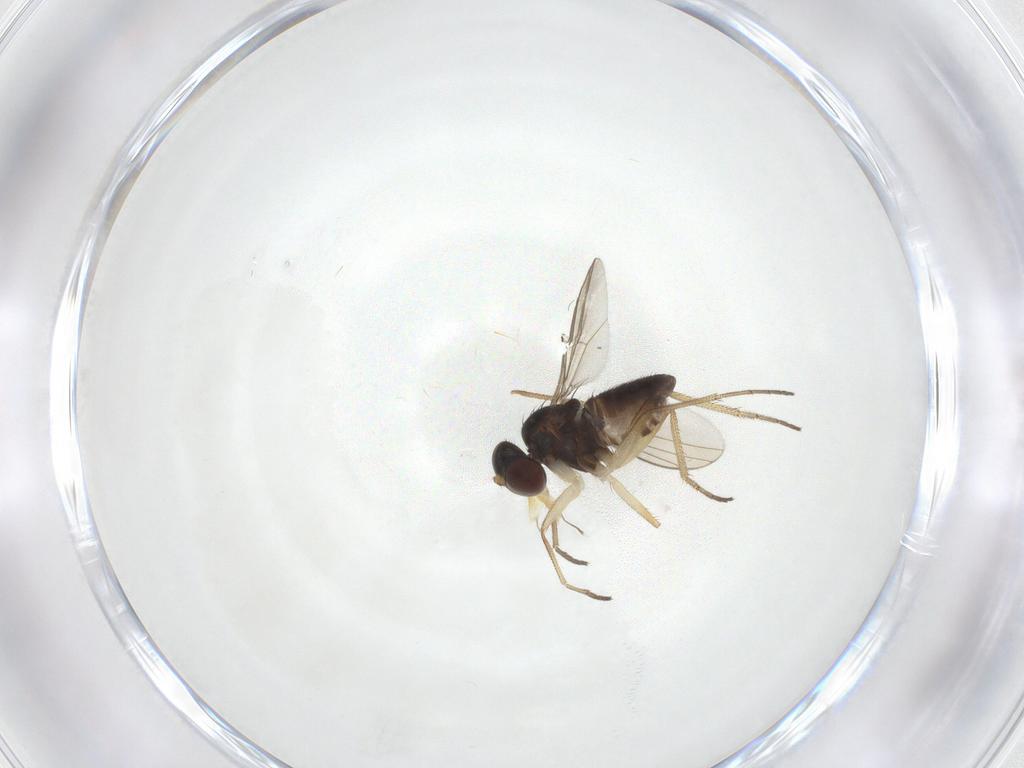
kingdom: Animalia
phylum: Arthropoda
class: Insecta
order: Diptera
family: Dolichopodidae
